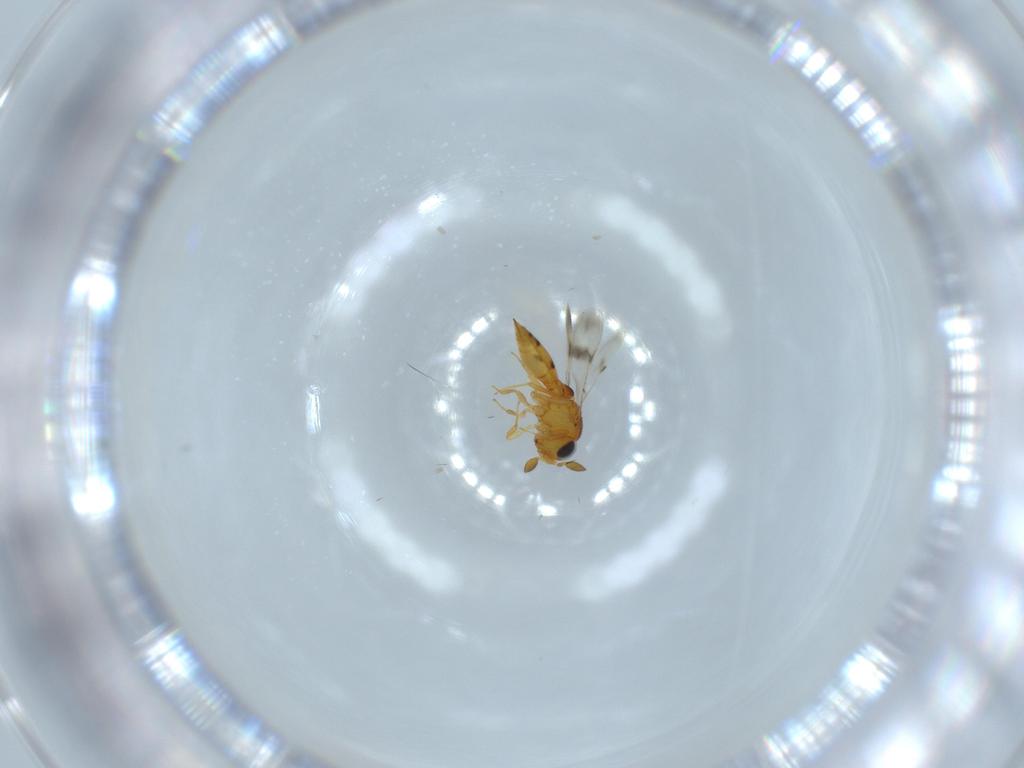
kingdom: Animalia
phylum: Arthropoda
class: Insecta
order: Hymenoptera
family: Scelionidae
